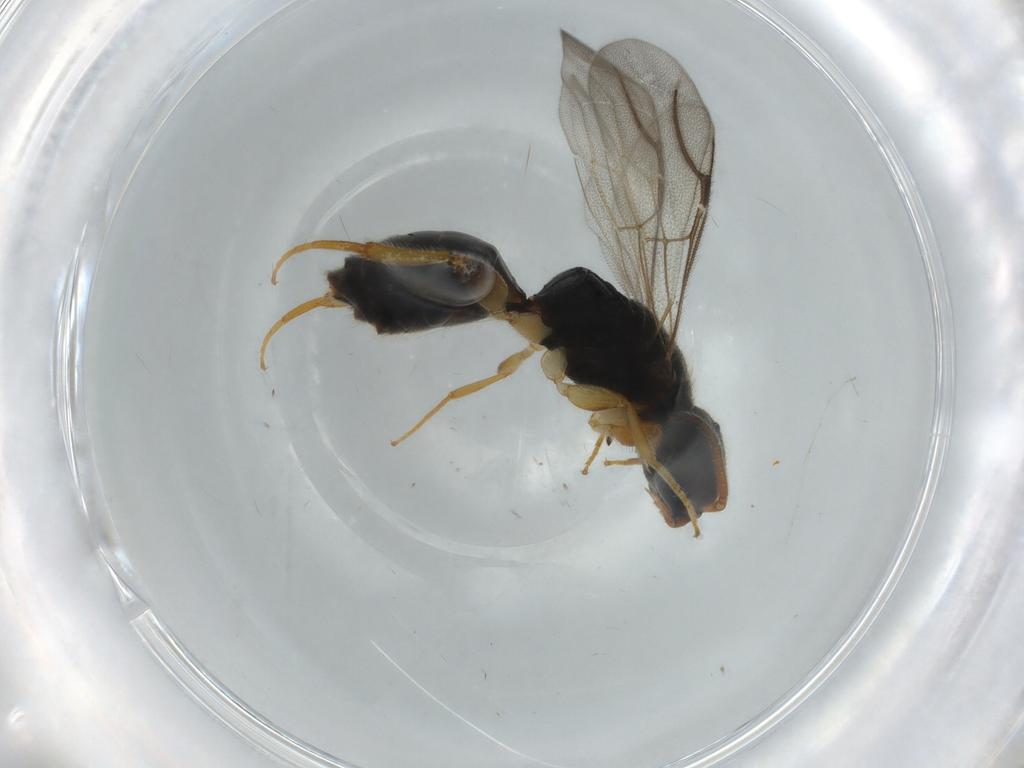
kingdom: Animalia
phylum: Arthropoda
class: Insecta
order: Hymenoptera
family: Bethylidae
